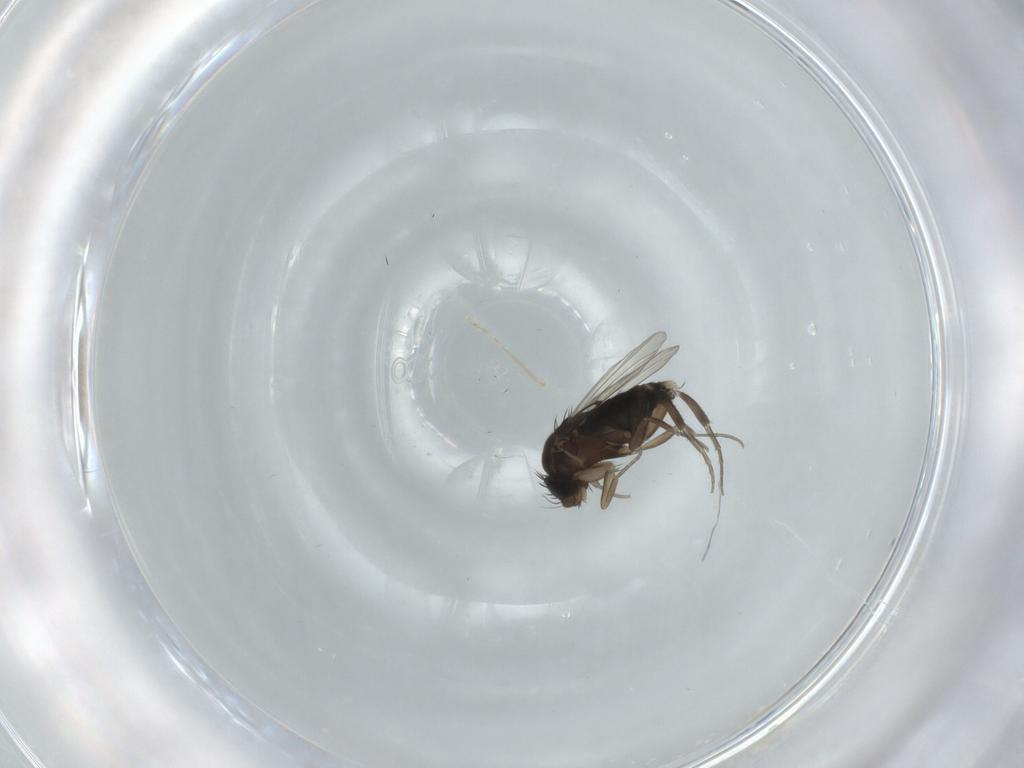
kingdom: Animalia
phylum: Arthropoda
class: Insecta
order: Diptera
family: Phoridae
